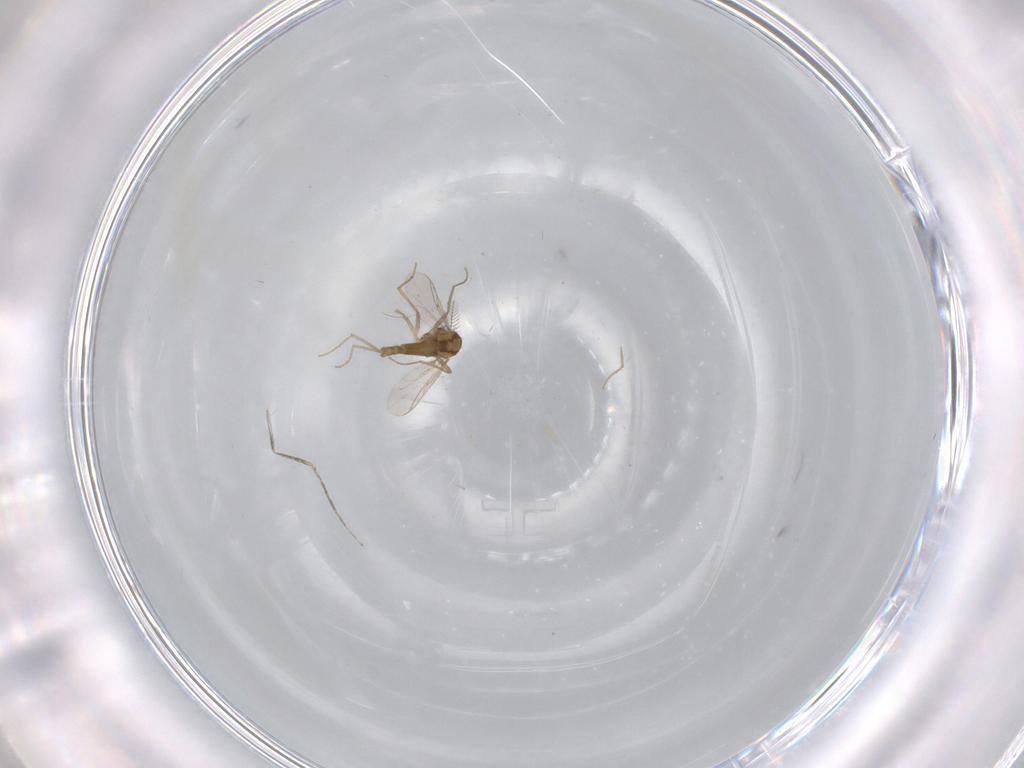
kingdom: Animalia
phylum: Arthropoda
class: Insecta
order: Diptera
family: Chironomidae
